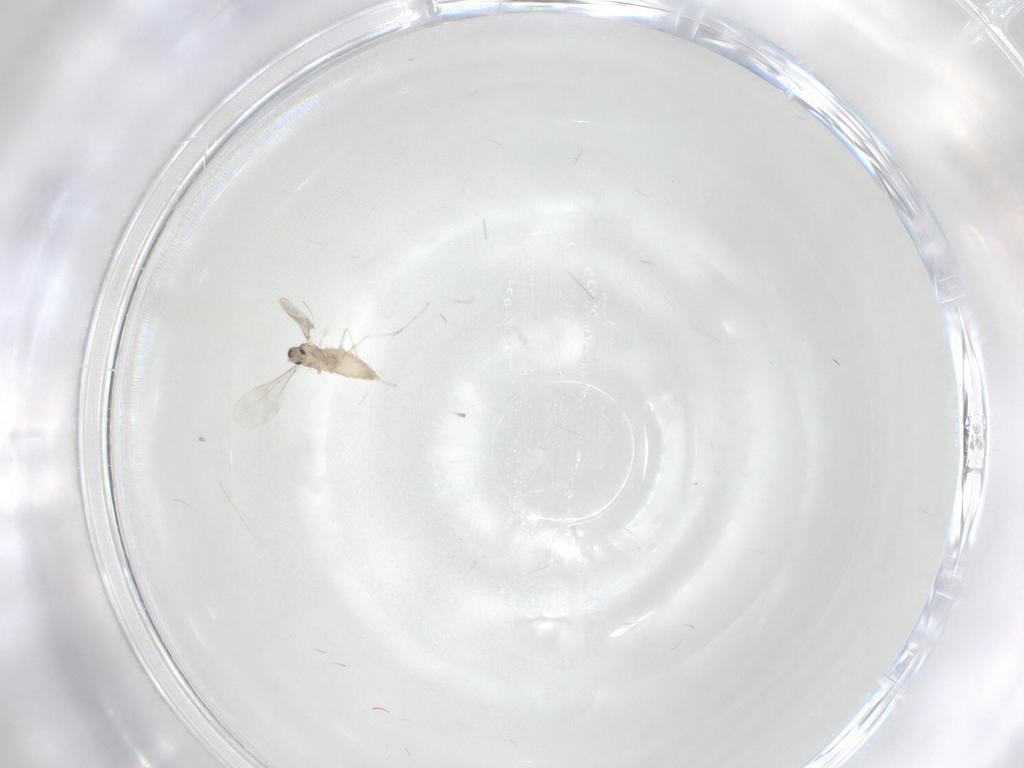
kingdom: Animalia
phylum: Arthropoda
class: Insecta
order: Diptera
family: Cecidomyiidae
